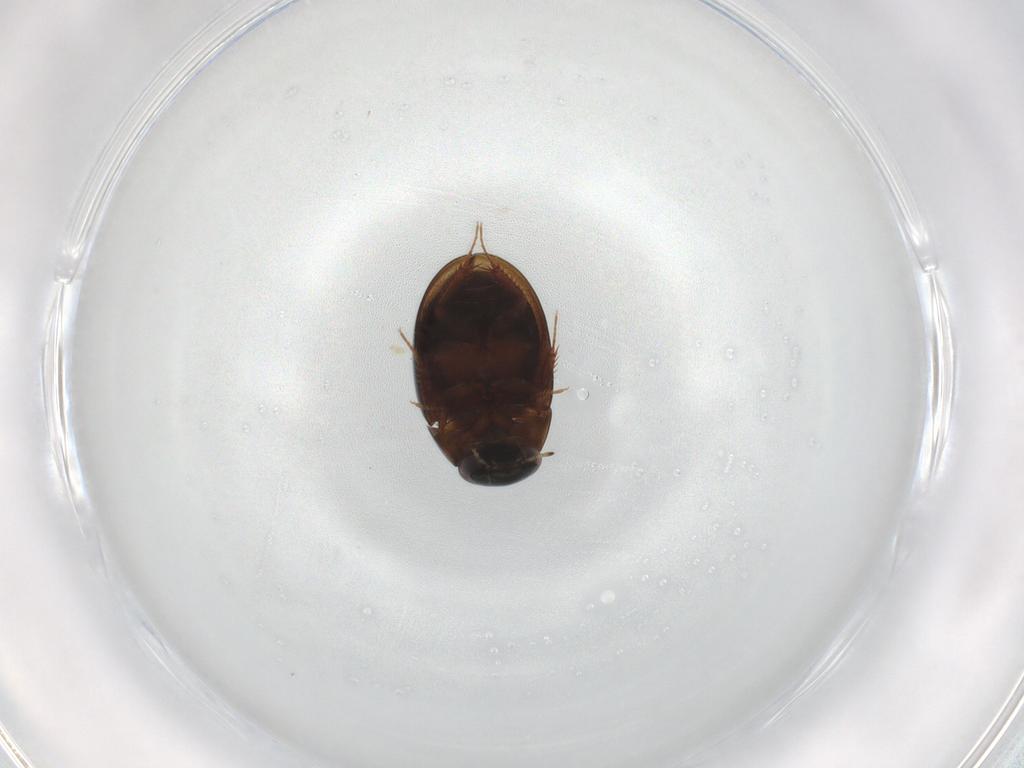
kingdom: Animalia
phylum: Arthropoda
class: Insecta
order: Coleoptera
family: Hydrophilidae
